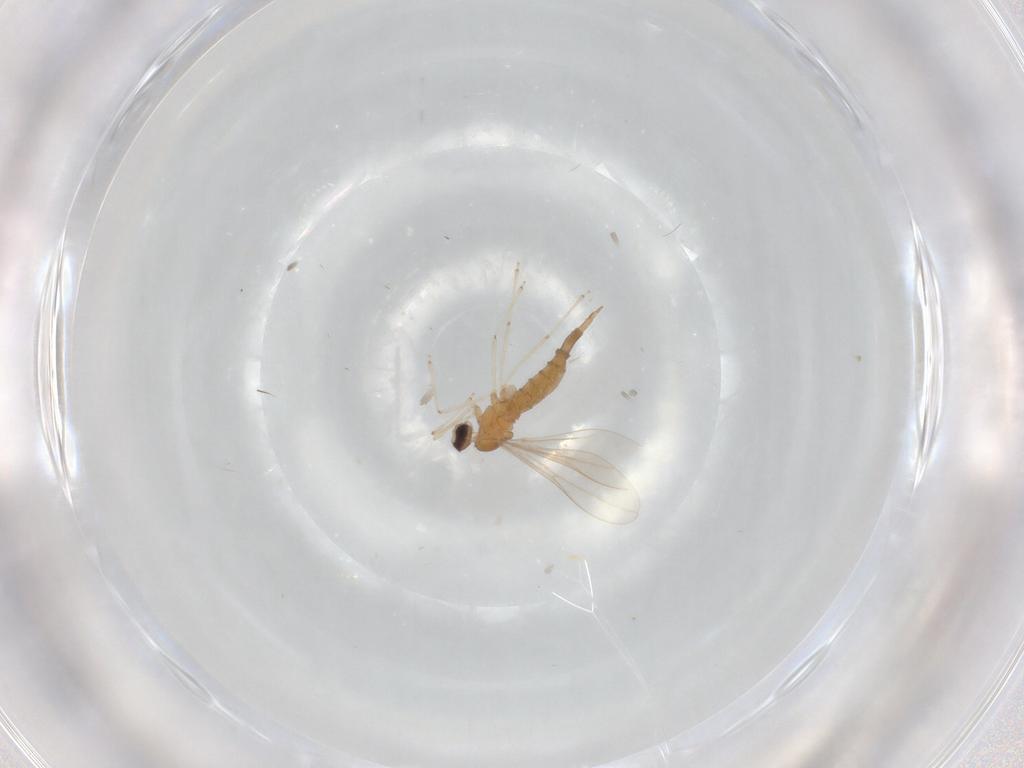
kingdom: Animalia
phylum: Arthropoda
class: Insecta
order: Diptera
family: Cecidomyiidae
